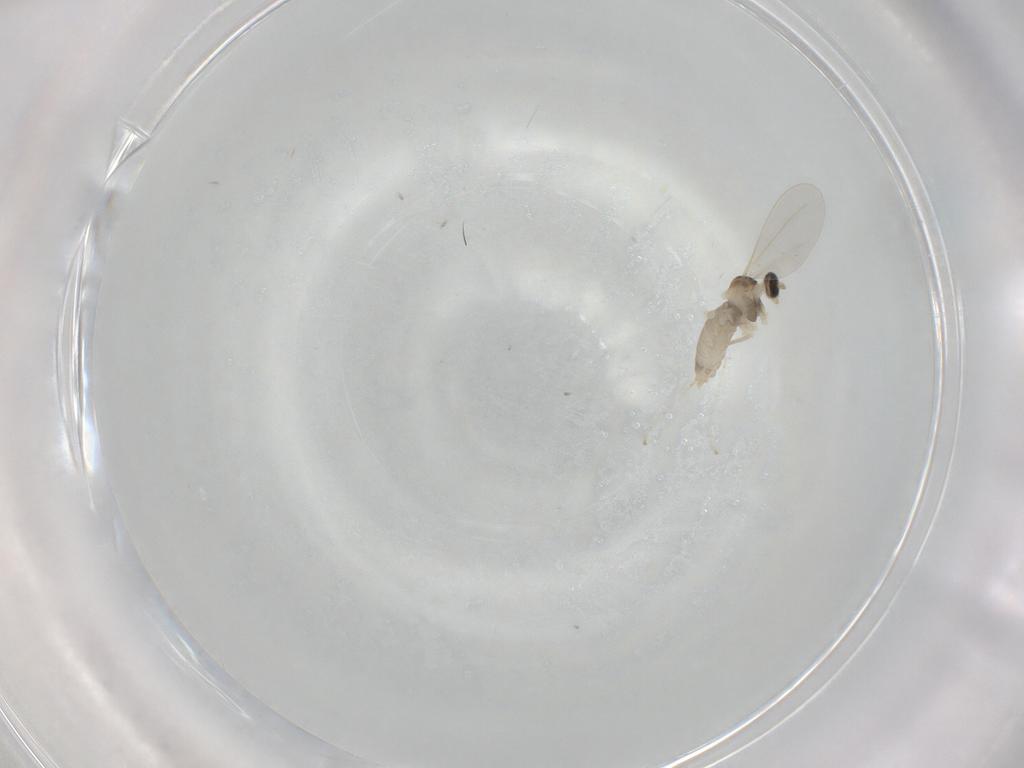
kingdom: Animalia
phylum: Arthropoda
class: Insecta
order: Diptera
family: Cecidomyiidae
